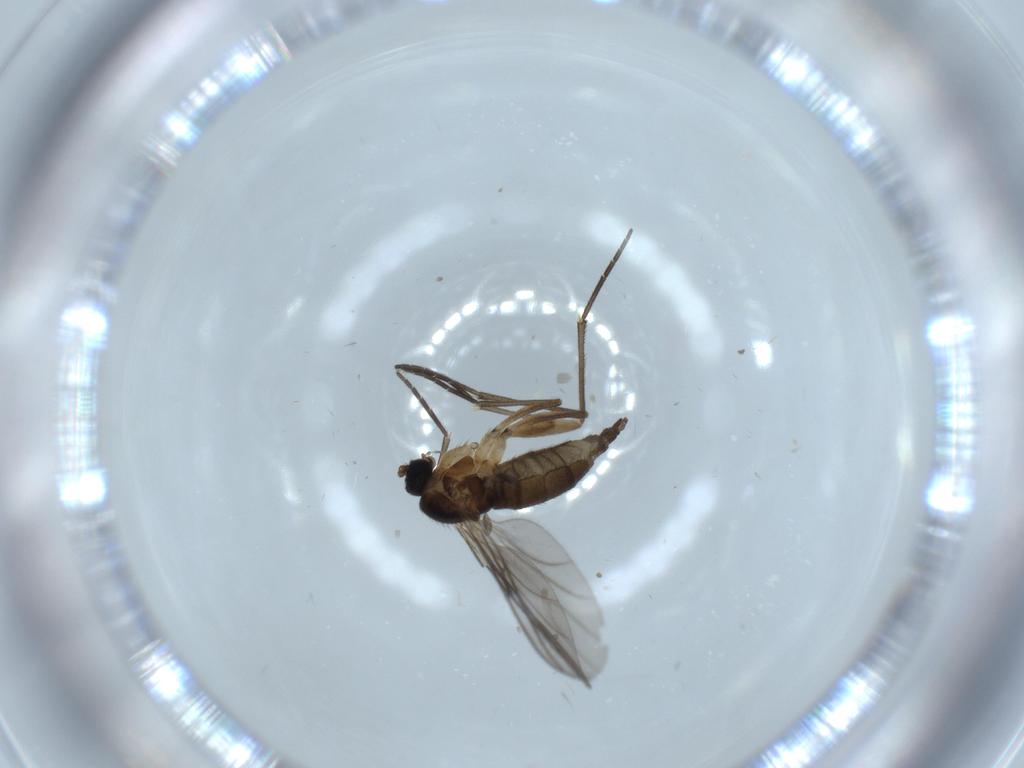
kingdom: Animalia
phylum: Arthropoda
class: Insecta
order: Diptera
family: Sciaridae
